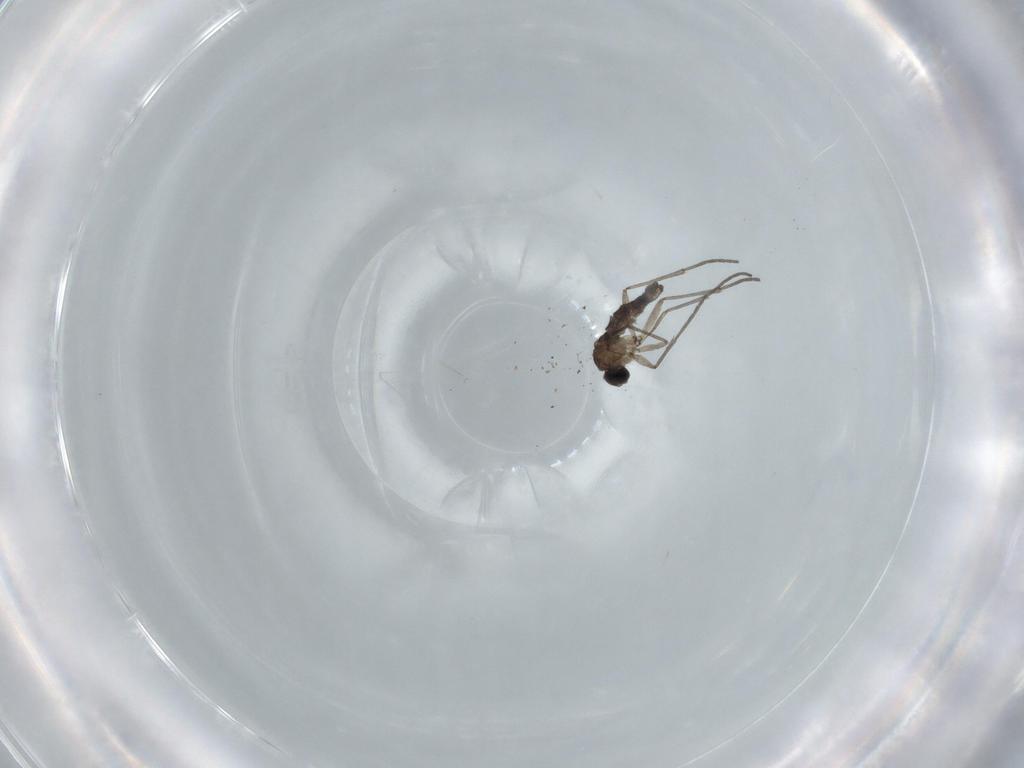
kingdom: Animalia
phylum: Arthropoda
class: Insecta
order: Diptera
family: Sciaridae
